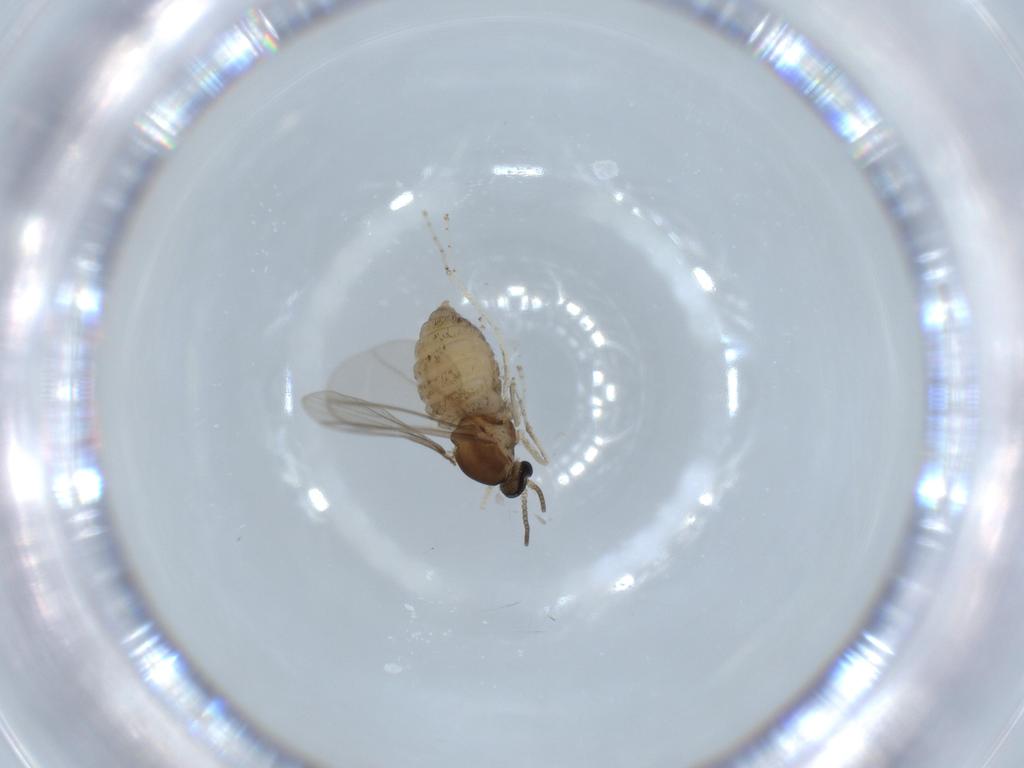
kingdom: Animalia
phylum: Arthropoda
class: Insecta
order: Diptera
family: Cecidomyiidae
